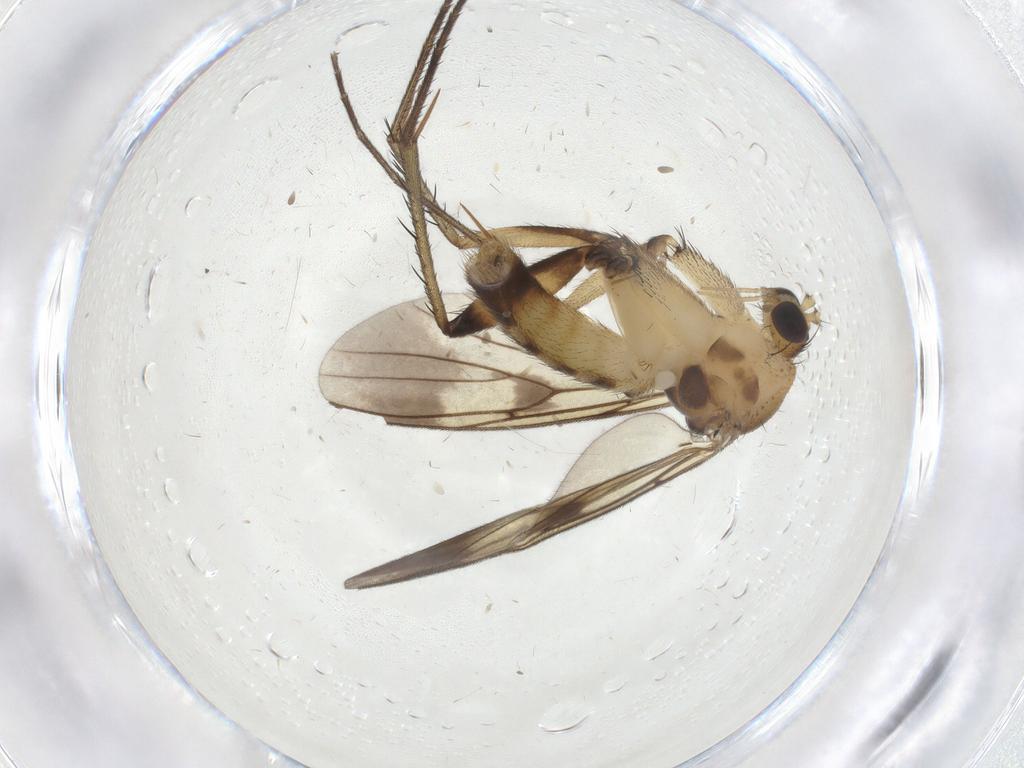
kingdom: Animalia
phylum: Arthropoda
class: Insecta
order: Diptera
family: Mycetophilidae
